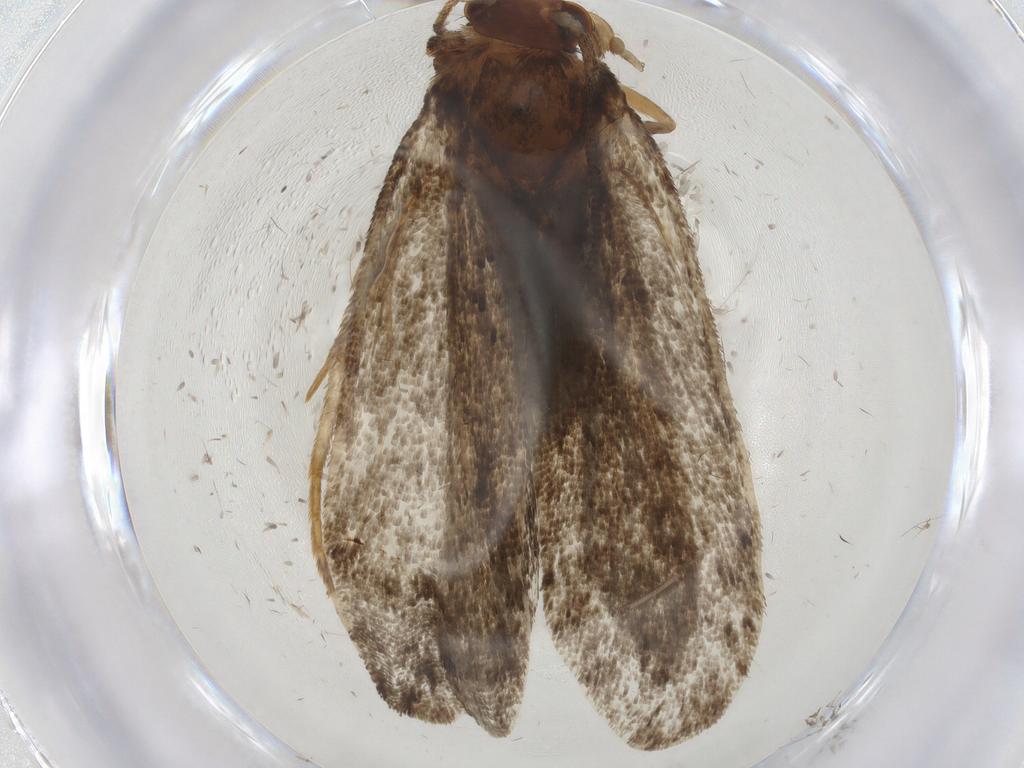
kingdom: Animalia
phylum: Arthropoda
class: Insecta
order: Lepidoptera
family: Tineidae
